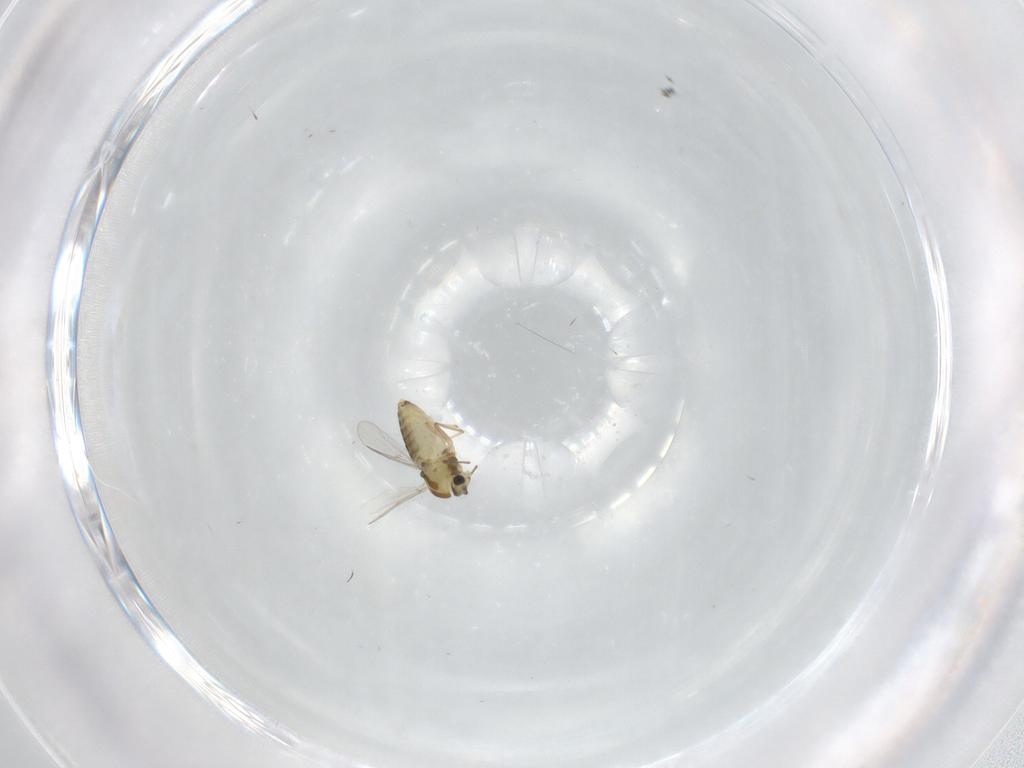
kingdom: Animalia
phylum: Arthropoda
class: Insecta
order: Diptera
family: Chironomidae
